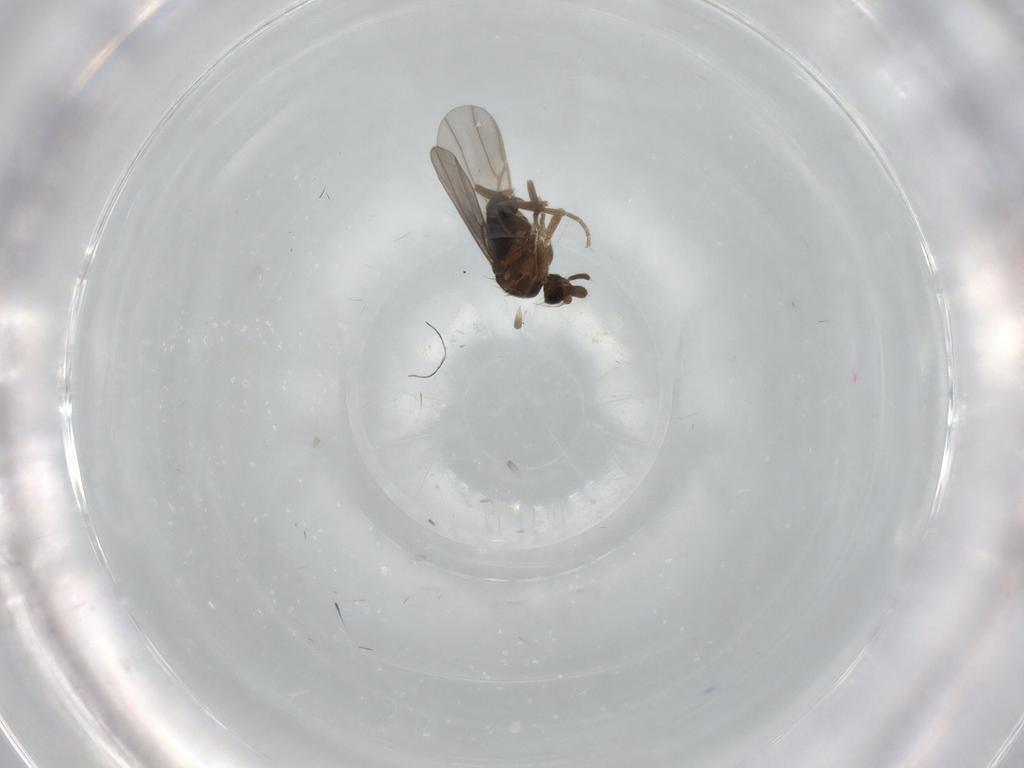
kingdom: Animalia
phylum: Arthropoda
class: Insecta
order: Diptera
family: Phoridae
